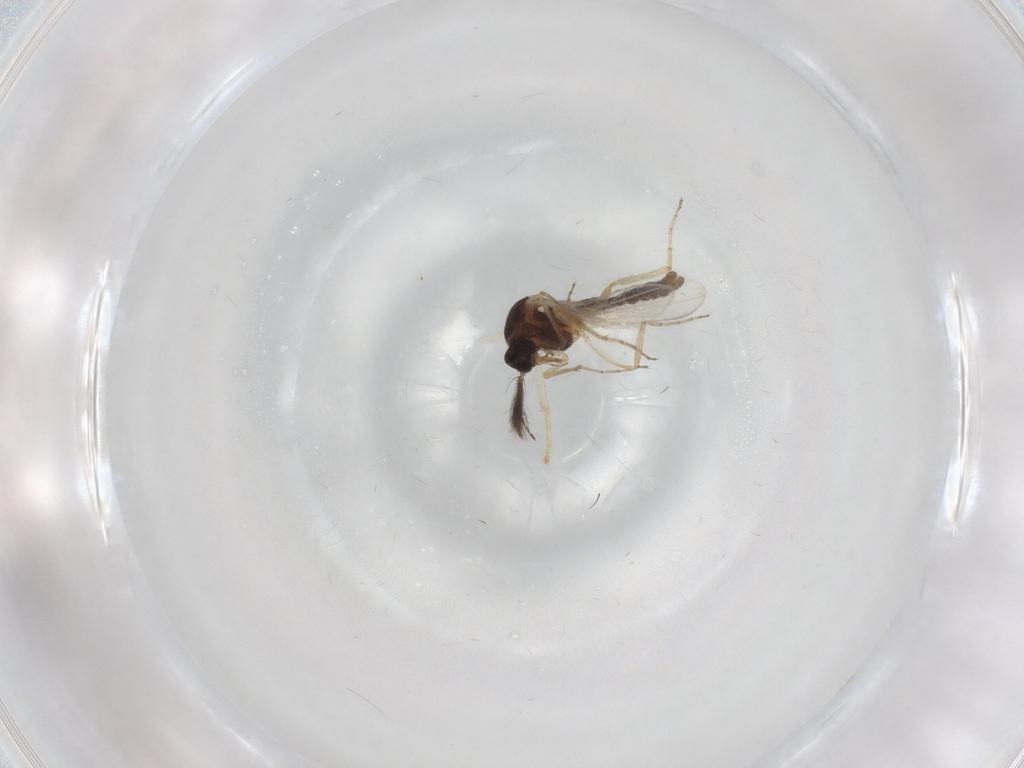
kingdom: Animalia
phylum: Arthropoda
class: Insecta
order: Diptera
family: Ceratopogonidae
